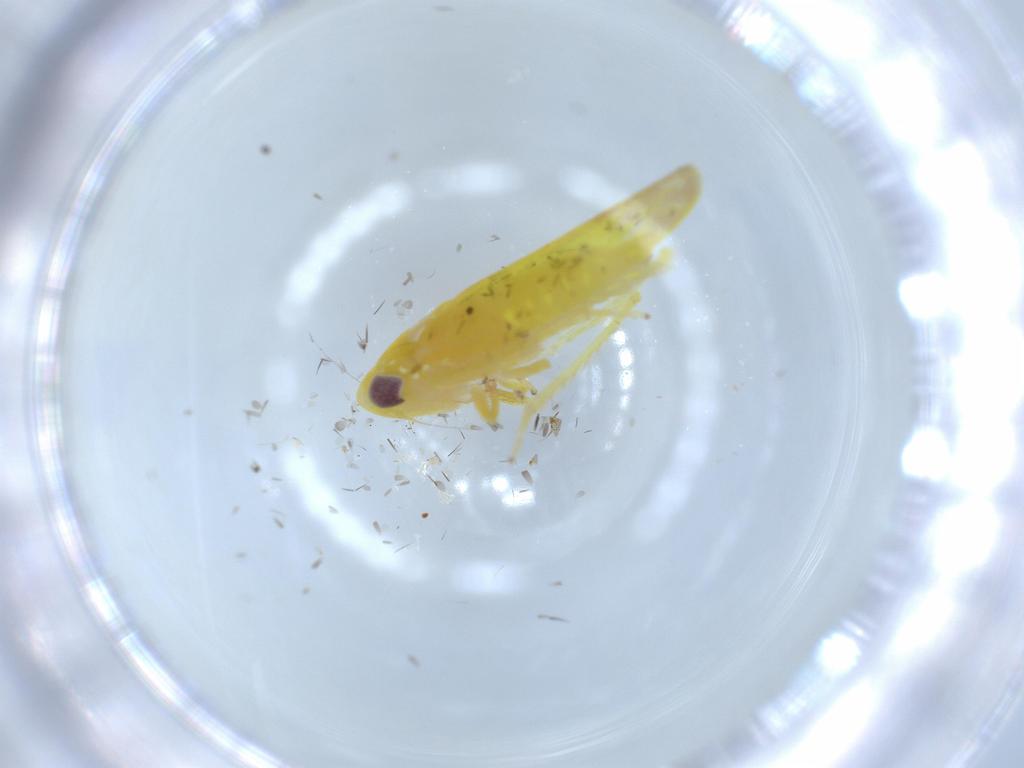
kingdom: Animalia
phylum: Arthropoda
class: Insecta
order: Hemiptera
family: Cicadellidae
